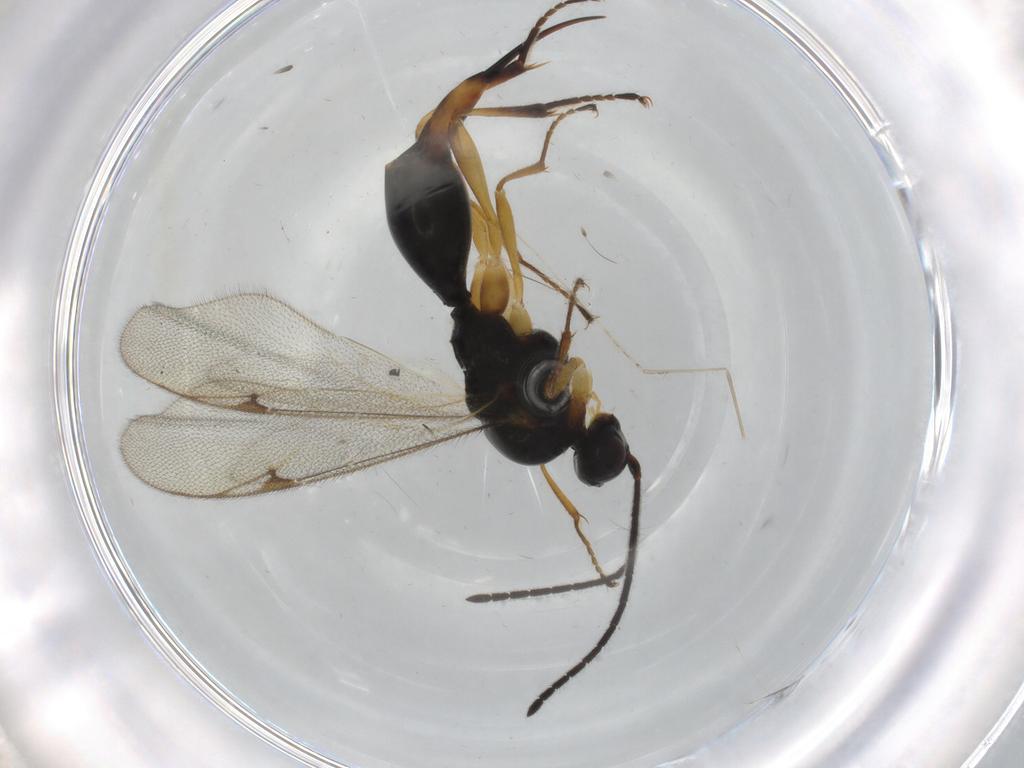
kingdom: Animalia
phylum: Arthropoda
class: Insecta
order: Hymenoptera
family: Proctotrupidae
